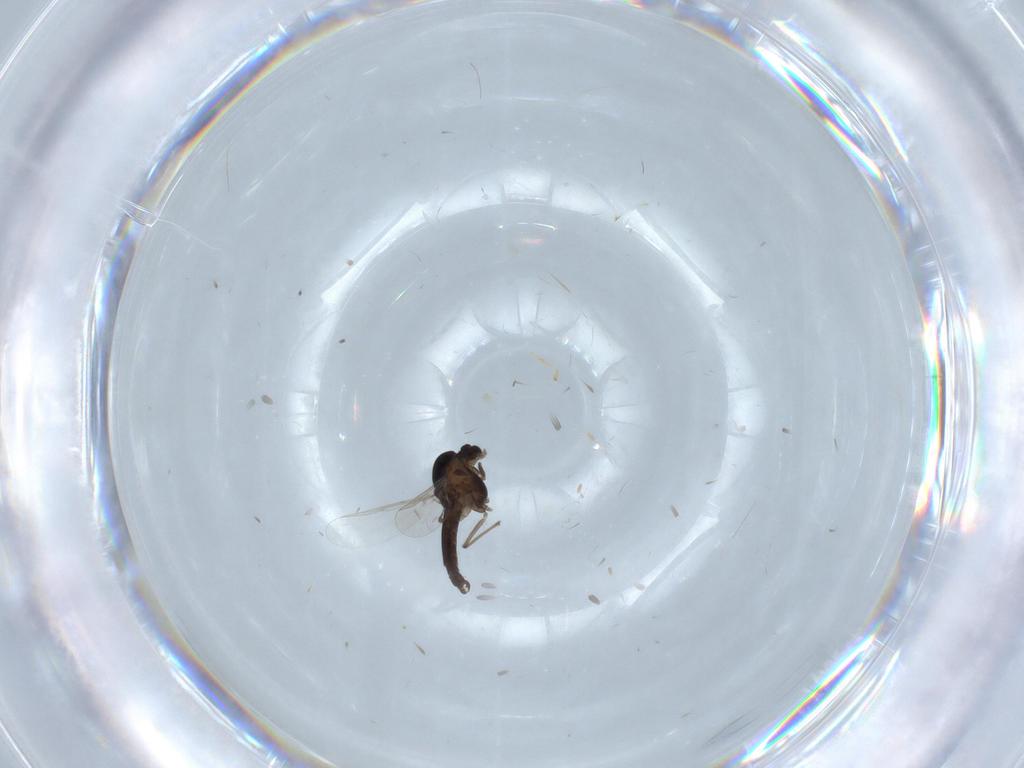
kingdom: Animalia
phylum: Arthropoda
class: Insecta
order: Diptera
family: Chironomidae
